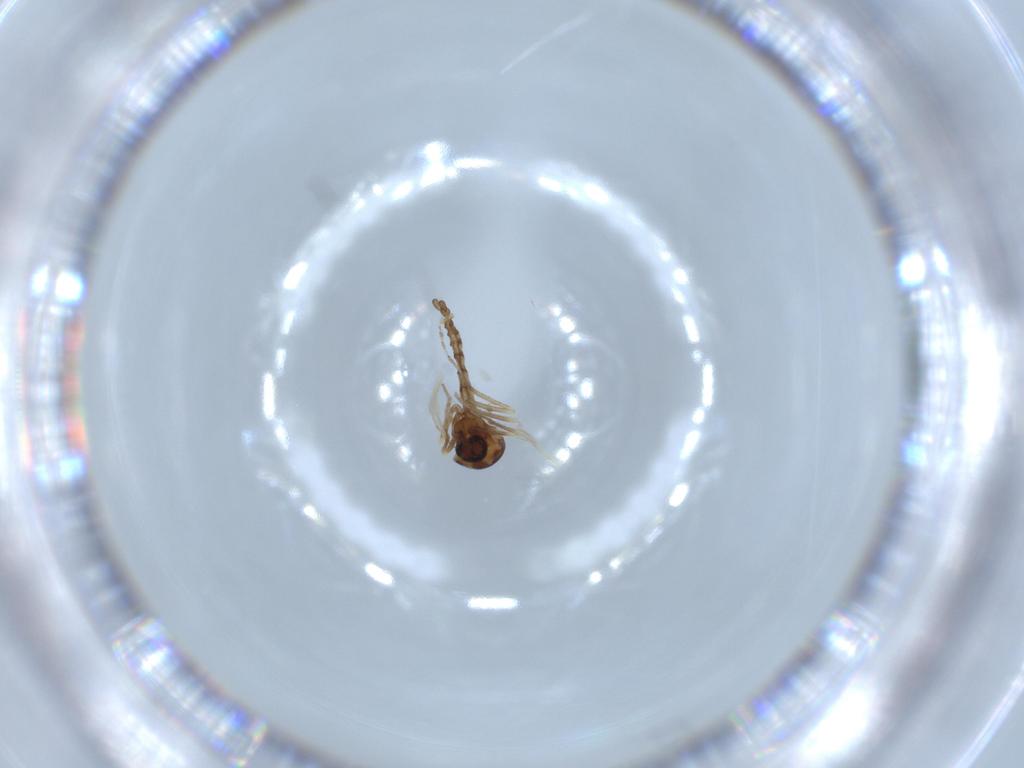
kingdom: Animalia
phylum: Arthropoda
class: Insecta
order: Diptera
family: Ceratopogonidae
